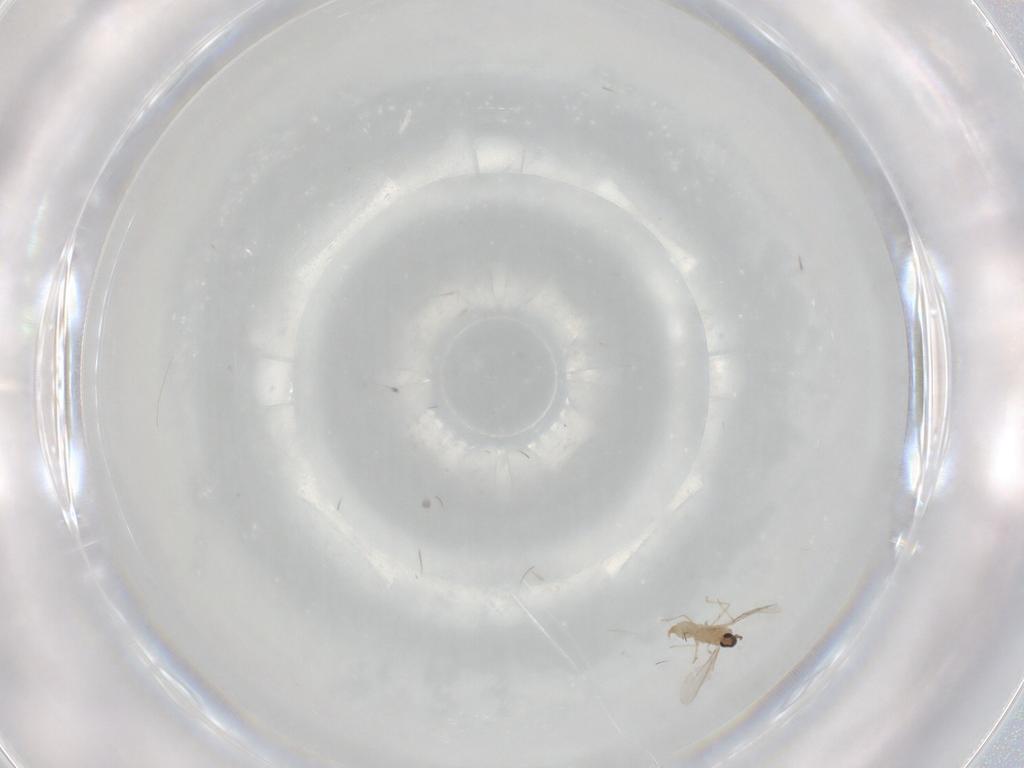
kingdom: Animalia
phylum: Arthropoda
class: Insecta
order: Diptera
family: Cecidomyiidae
